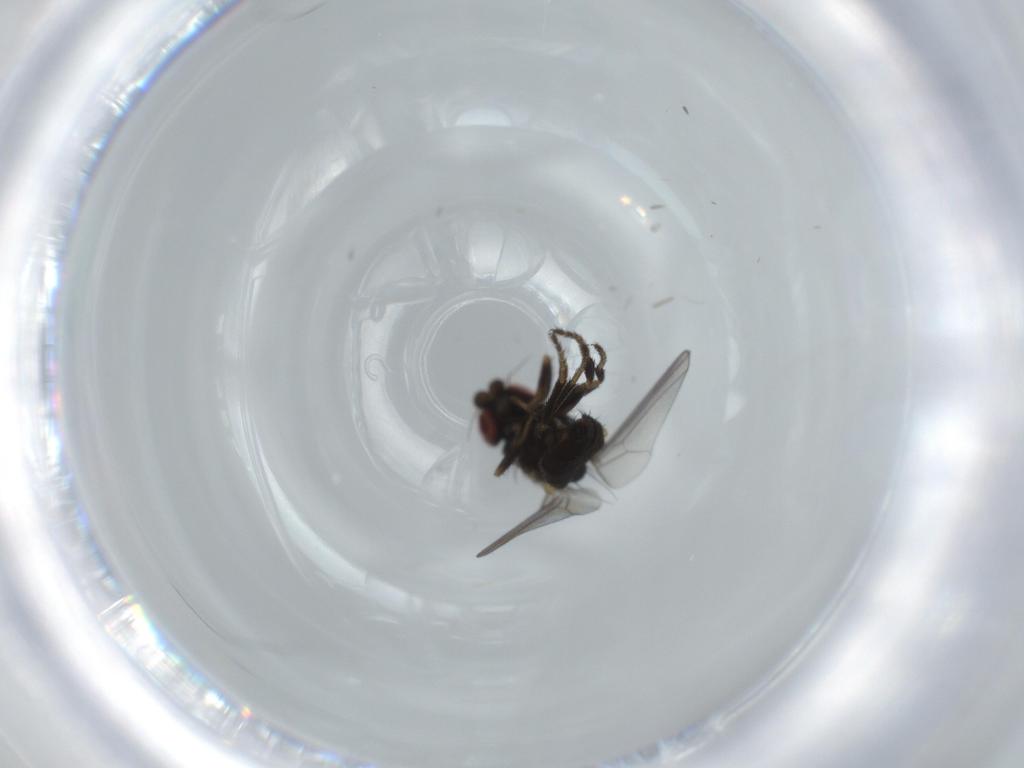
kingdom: Animalia
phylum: Arthropoda
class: Insecta
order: Diptera
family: Milichiidae
